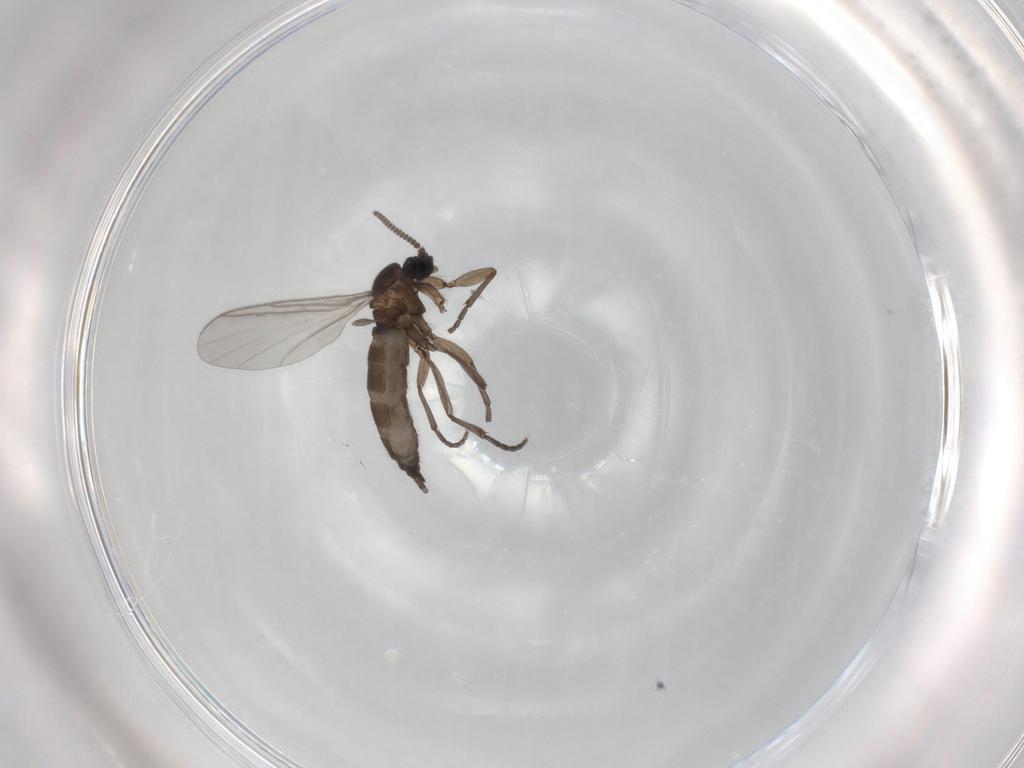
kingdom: Animalia
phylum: Arthropoda
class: Insecta
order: Diptera
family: Sciaridae
